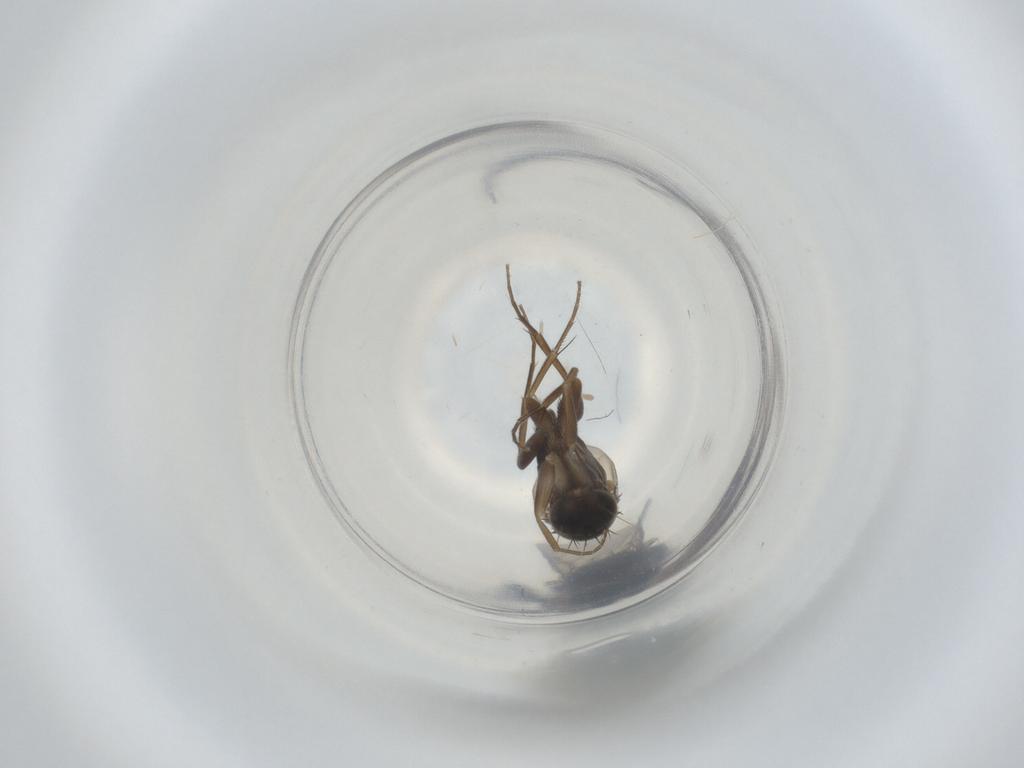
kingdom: Animalia
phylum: Arthropoda
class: Insecta
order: Diptera
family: Phoridae
